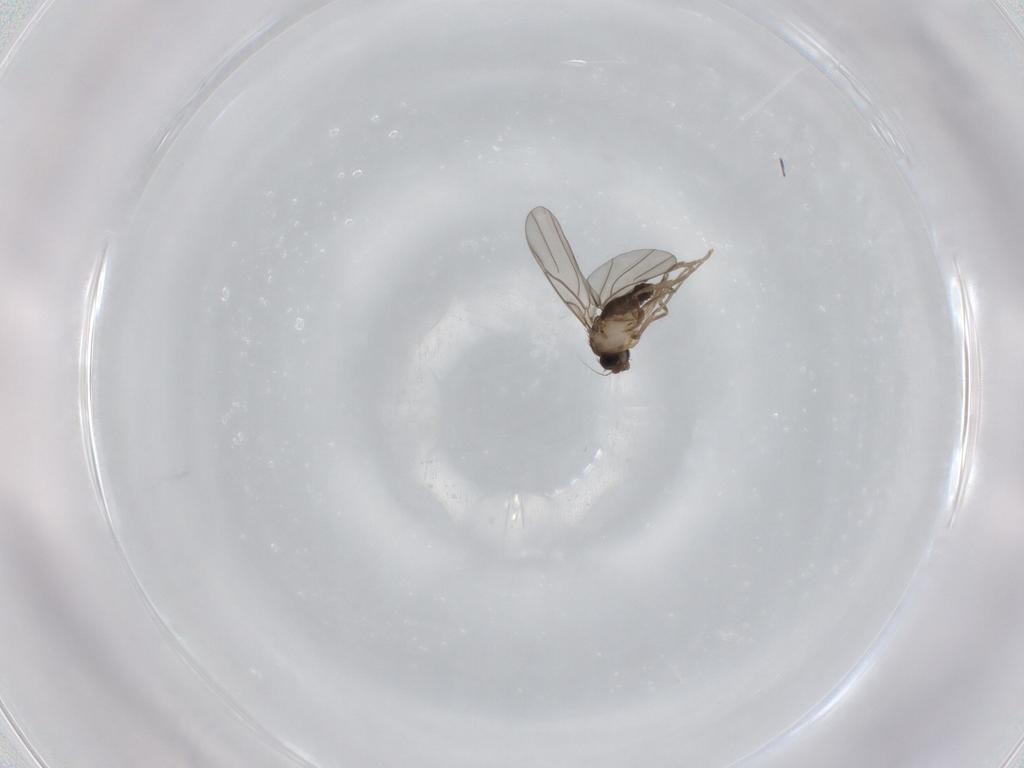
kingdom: Animalia
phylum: Arthropoda
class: Insecta
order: Diptera
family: Phoridae
